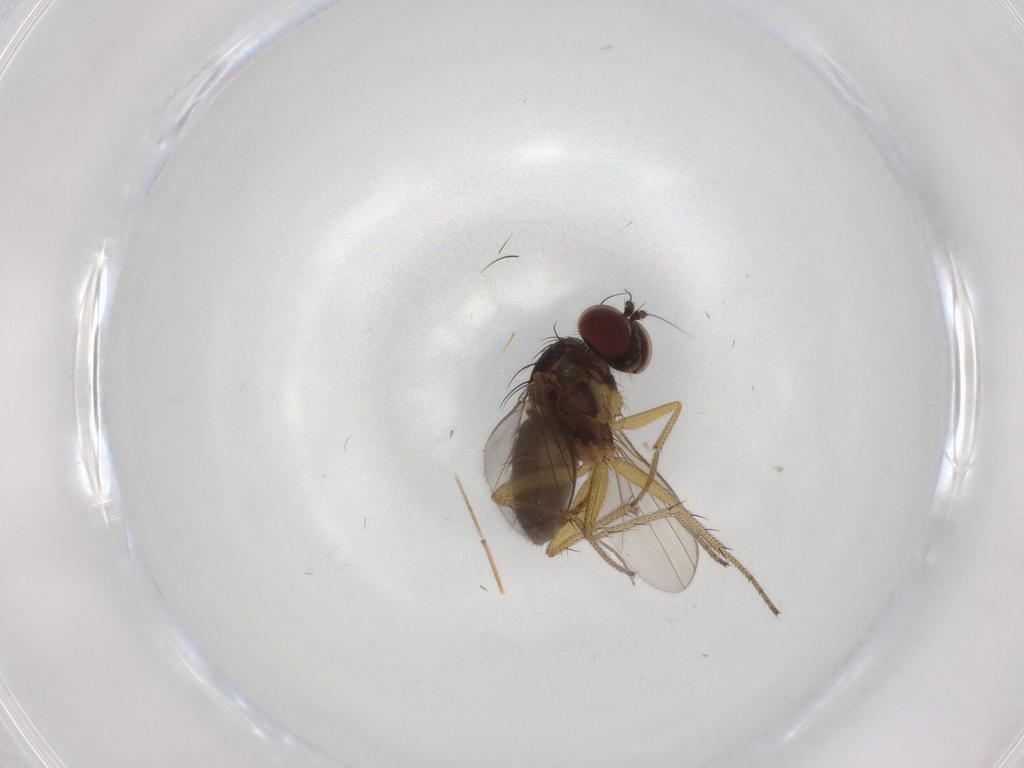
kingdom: Animalia
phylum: Arthropoda
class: Insecta
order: Diptera
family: Dolichopodidae
